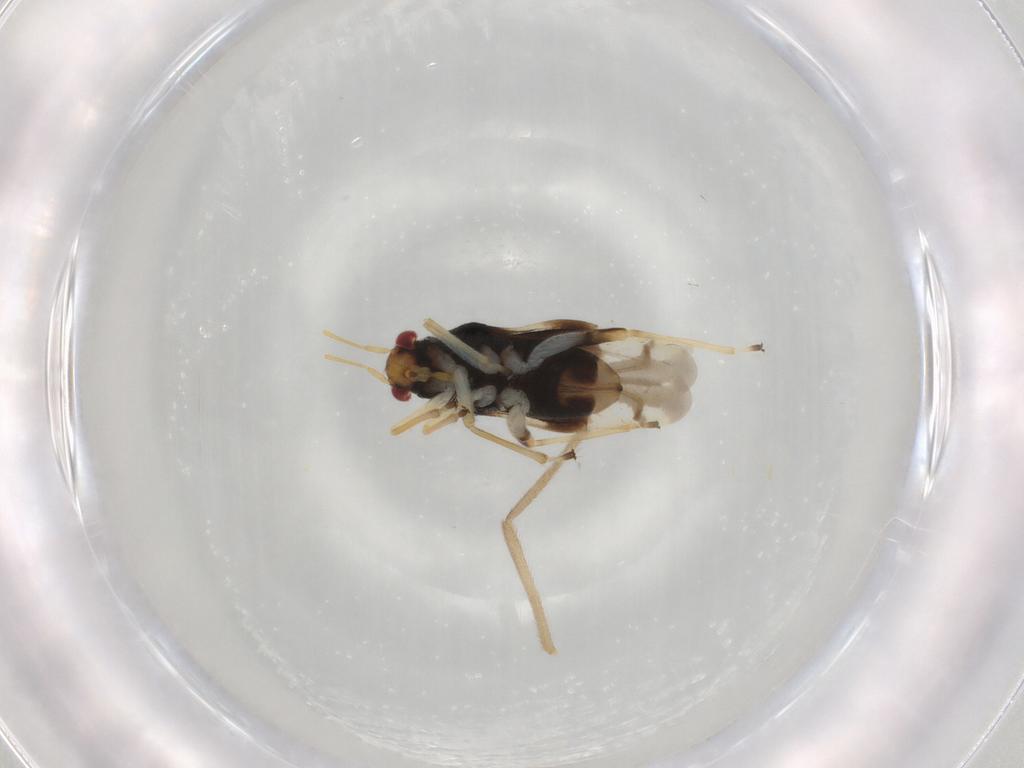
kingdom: Animalia
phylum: Arthropoda
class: Insecta
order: Hemiptera
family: Miridae
